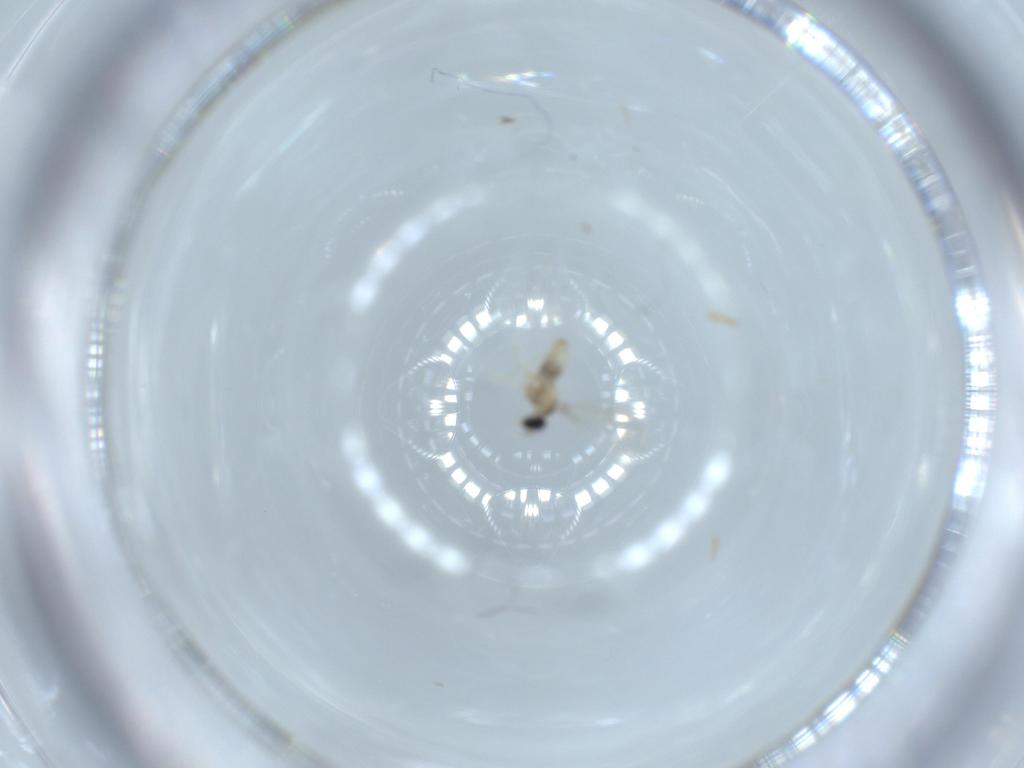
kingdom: Animalia
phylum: Arthropoda
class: Insecta
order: Diptera
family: Cecidomyiidae
